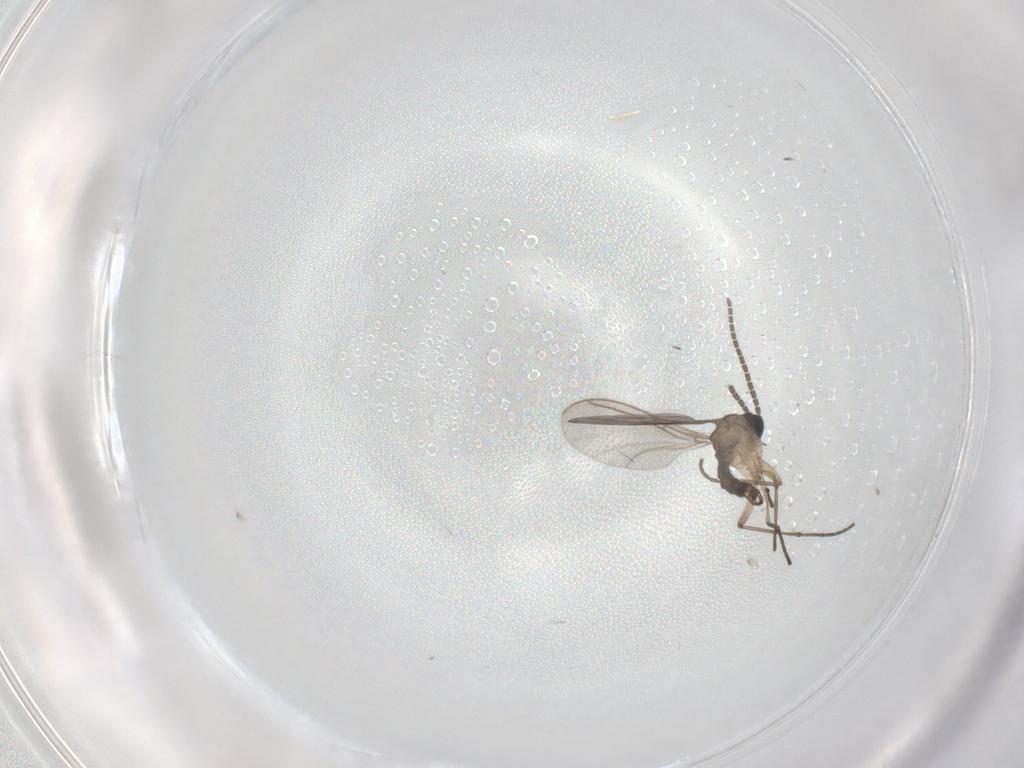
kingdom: Animalia
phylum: Arthropoda
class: Insecta
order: Diptera
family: Sciaridae
